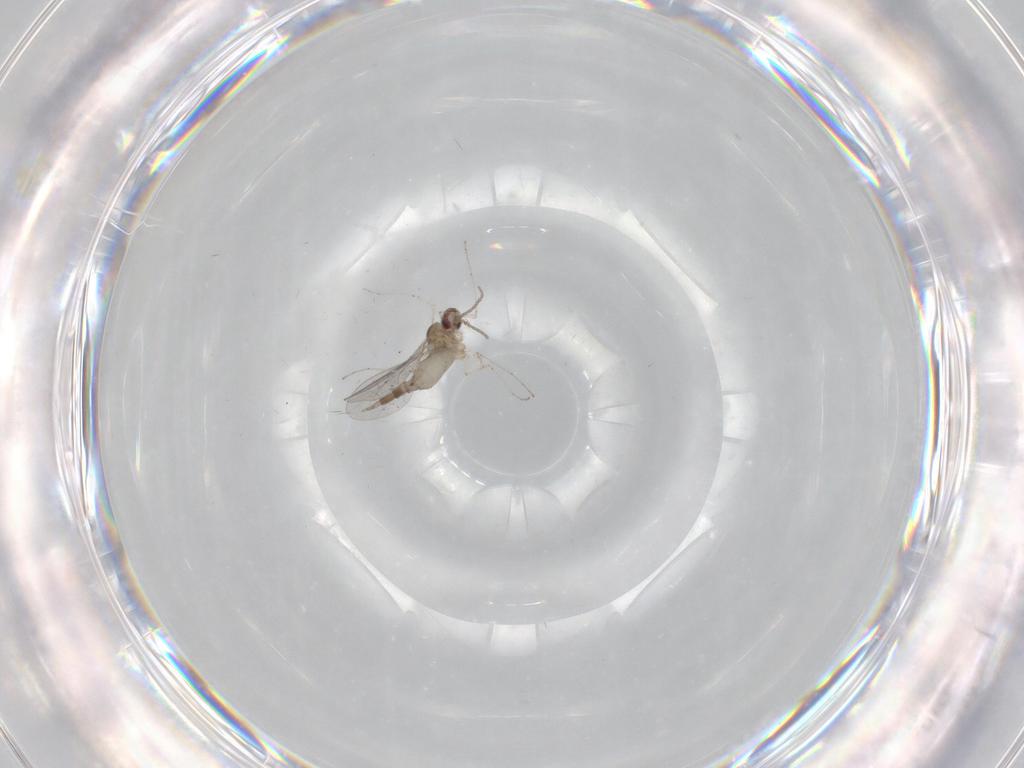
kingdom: Animalia
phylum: Arthropoda
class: Insecta
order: Diptera
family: Cecidomyiidae
